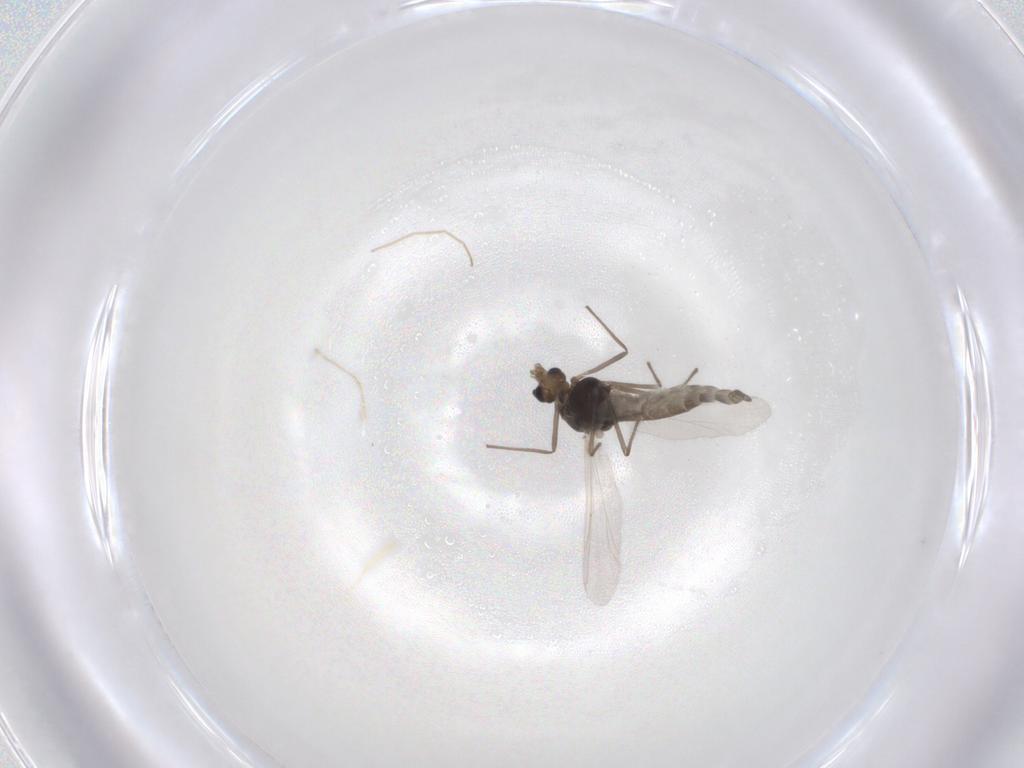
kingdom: Animalia
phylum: Arthropoda
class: Insecta
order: Diptera
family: Chironomidae
